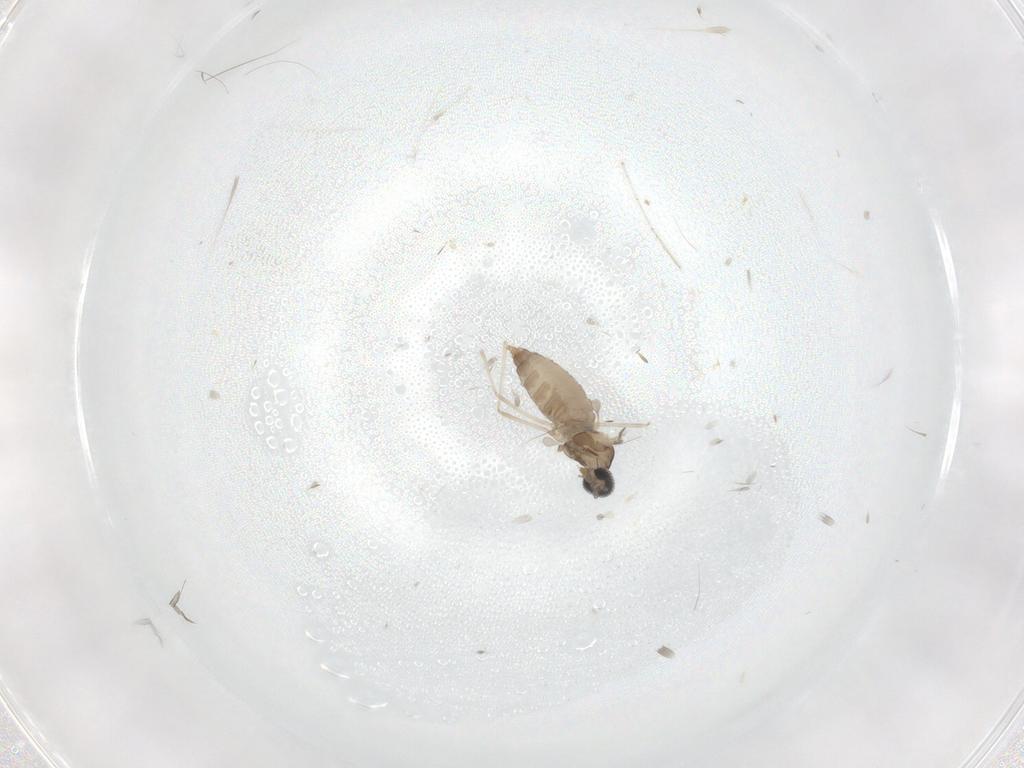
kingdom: Animalia
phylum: Arthropoda
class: Insecta
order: Diptera
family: Cecidomyiidae
